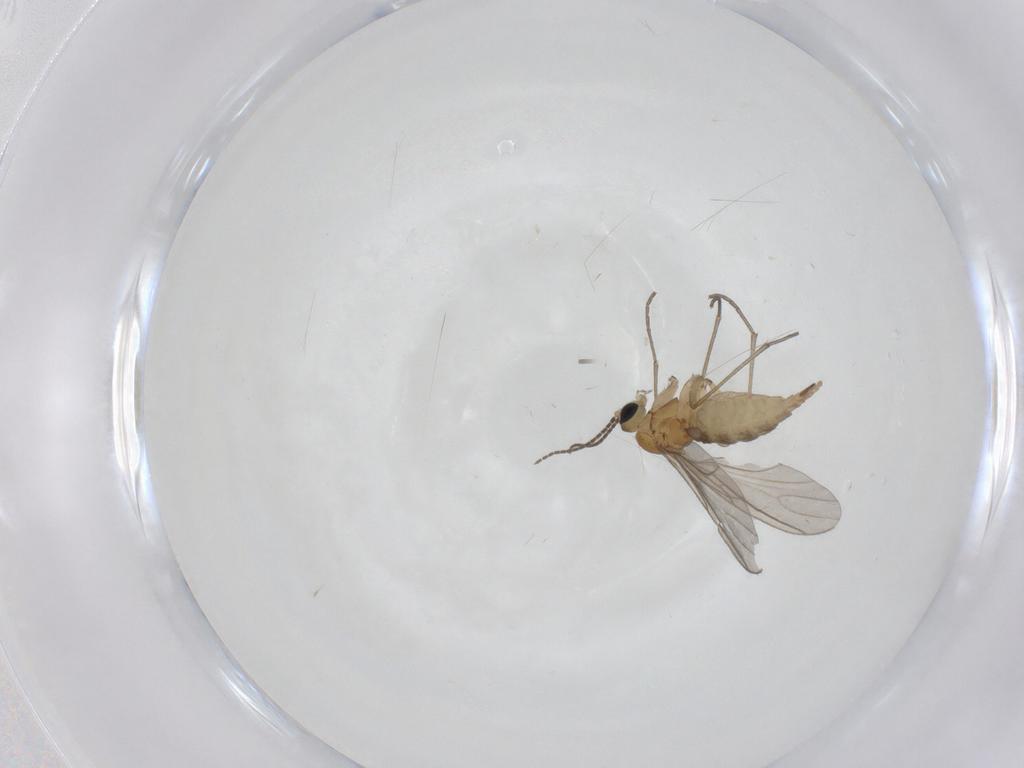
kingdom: Animalia
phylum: Arthropoda
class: Insecta
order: Diptera
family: Sciaridae
